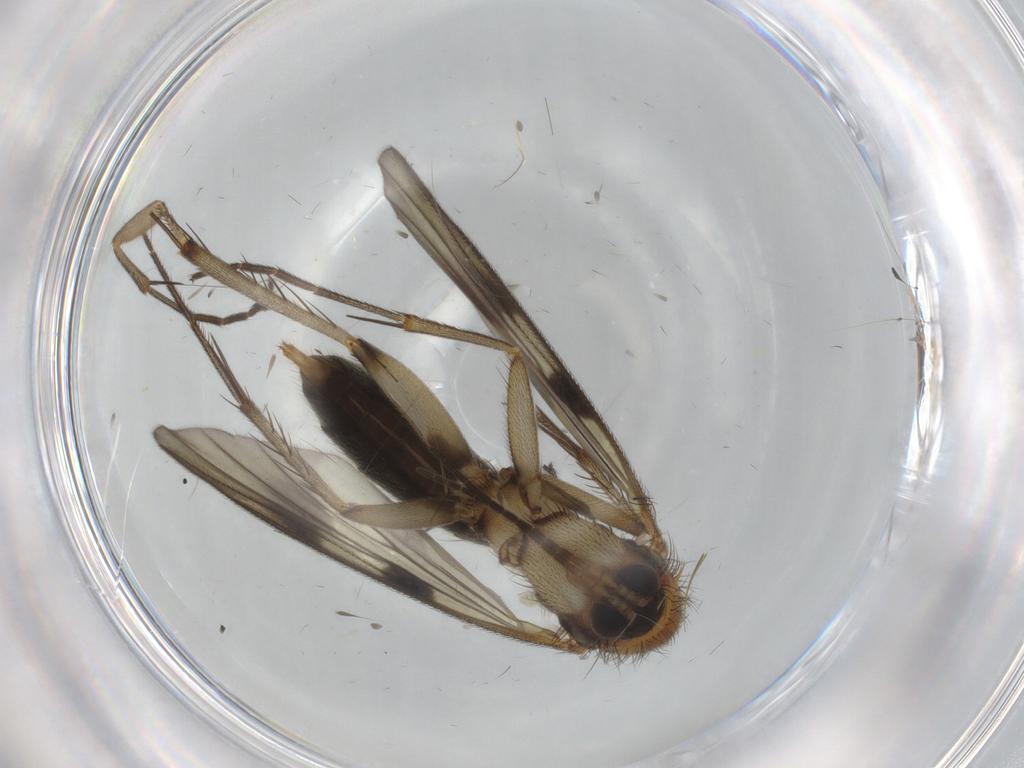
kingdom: Animalia
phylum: Arthropoda
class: Insecta
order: Diptera
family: Sciaridae
